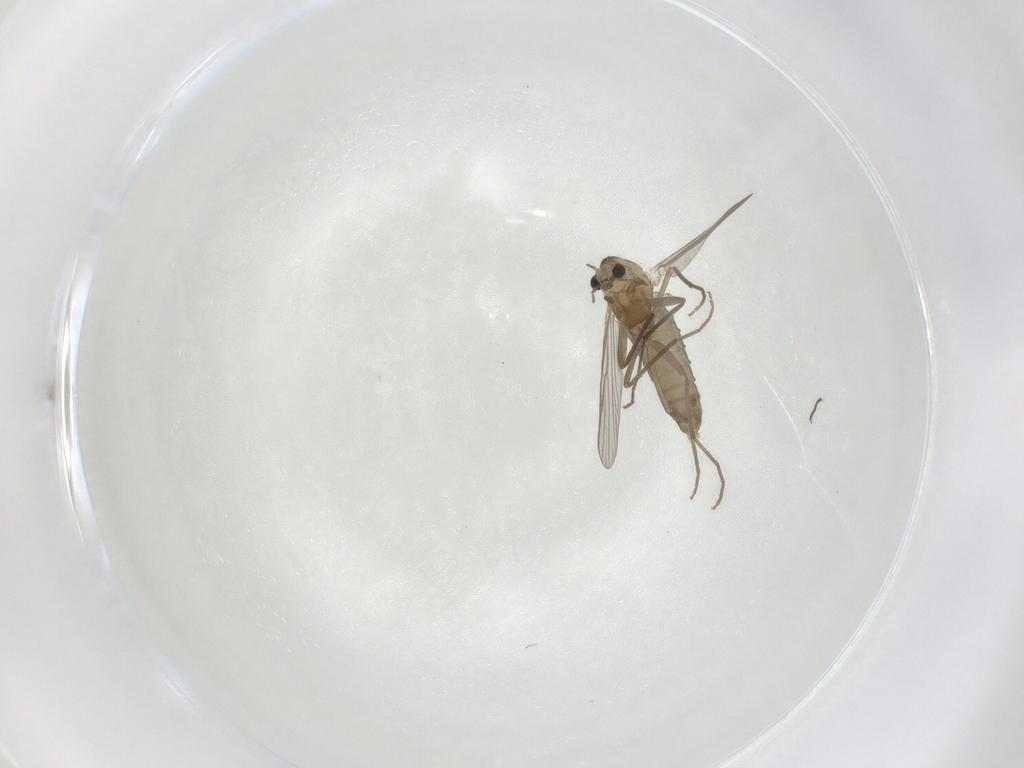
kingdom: Animalia
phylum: Arthropoda
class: Insecta
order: Diptera
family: Chironomidae
